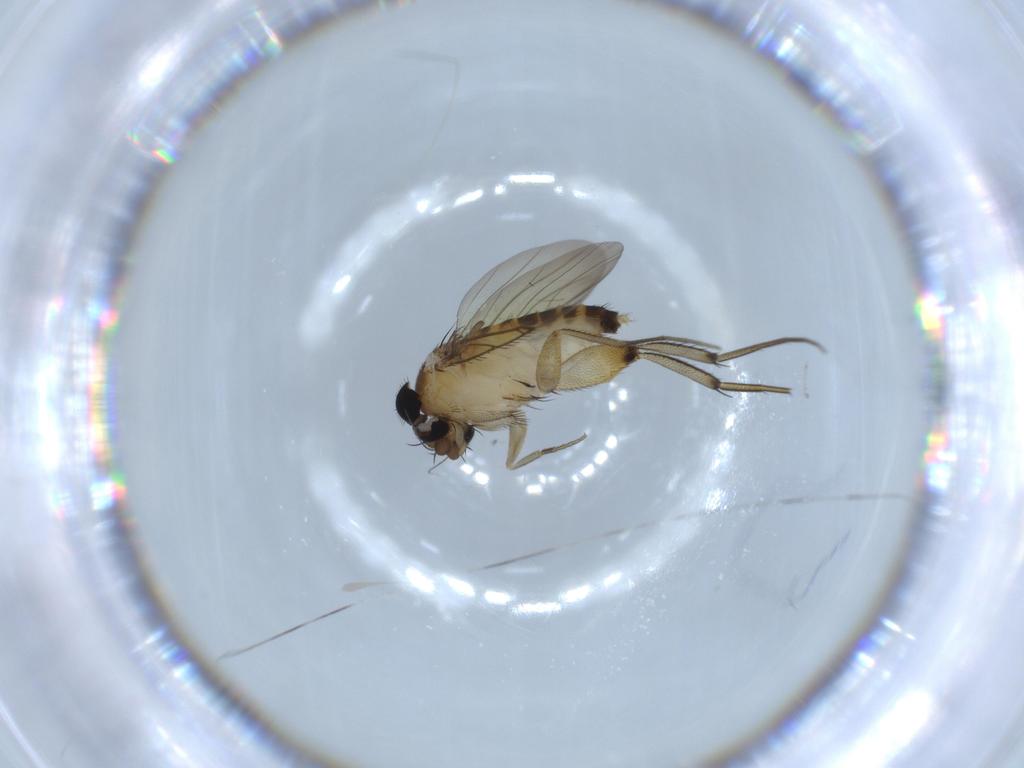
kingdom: Animalia
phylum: Arthropoda
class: Insecta
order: Diptera
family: Phoridae
